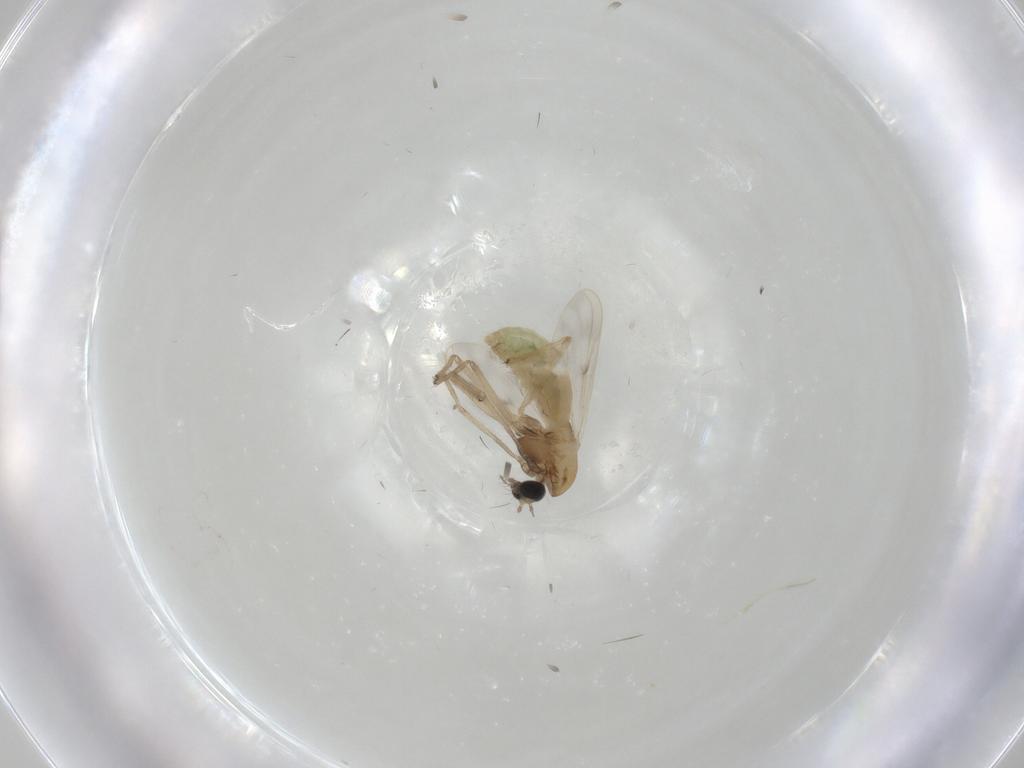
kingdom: Animalia
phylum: Arthropoda
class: Insecta
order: Diptera
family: Chironomidae
